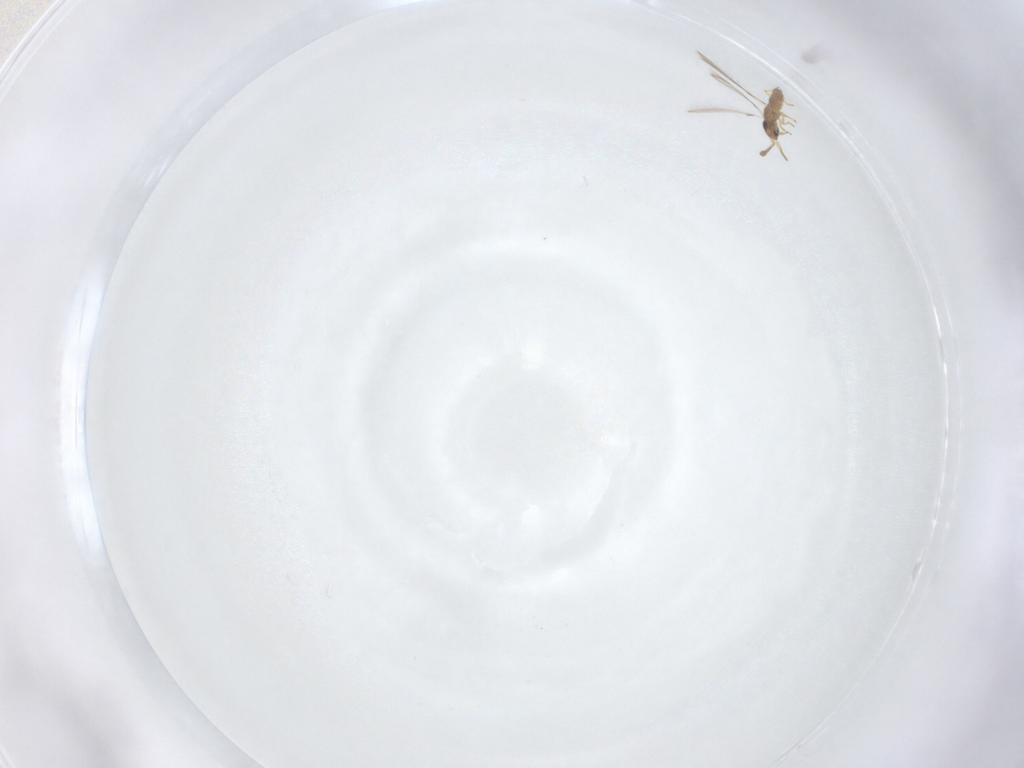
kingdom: Animalia
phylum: Arthropoda
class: Insecta
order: Hymenoptera
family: Mymaridae
